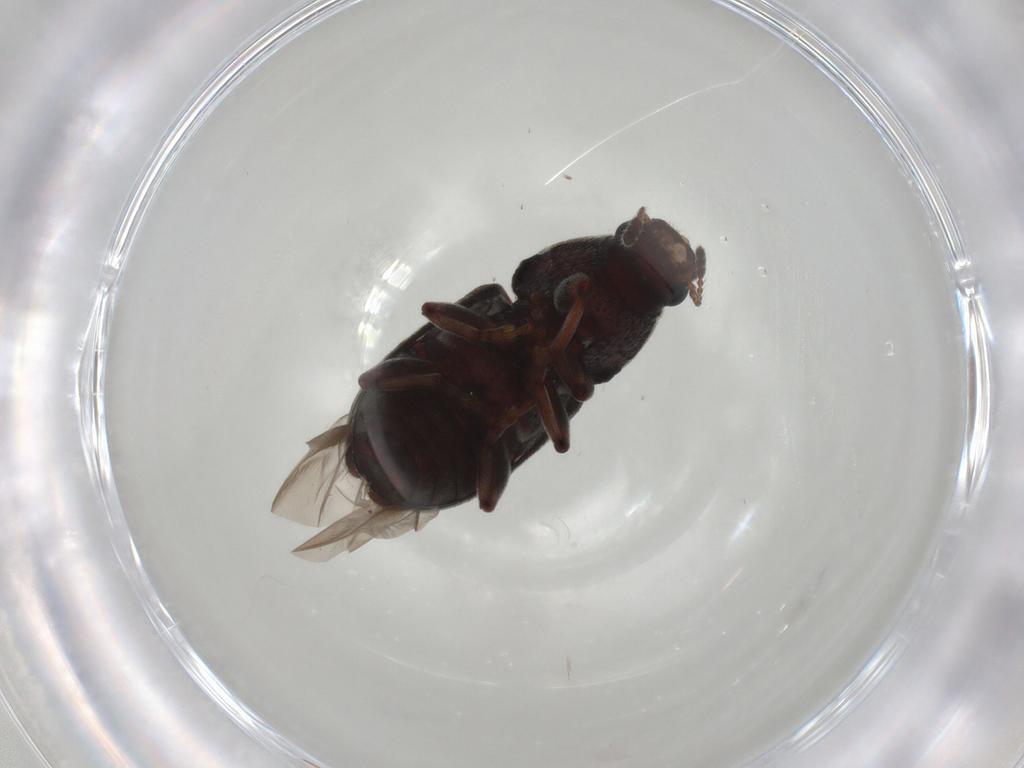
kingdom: Animalia
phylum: Arthropoda
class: Insecta
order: Coleoptera
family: Anthribidae
